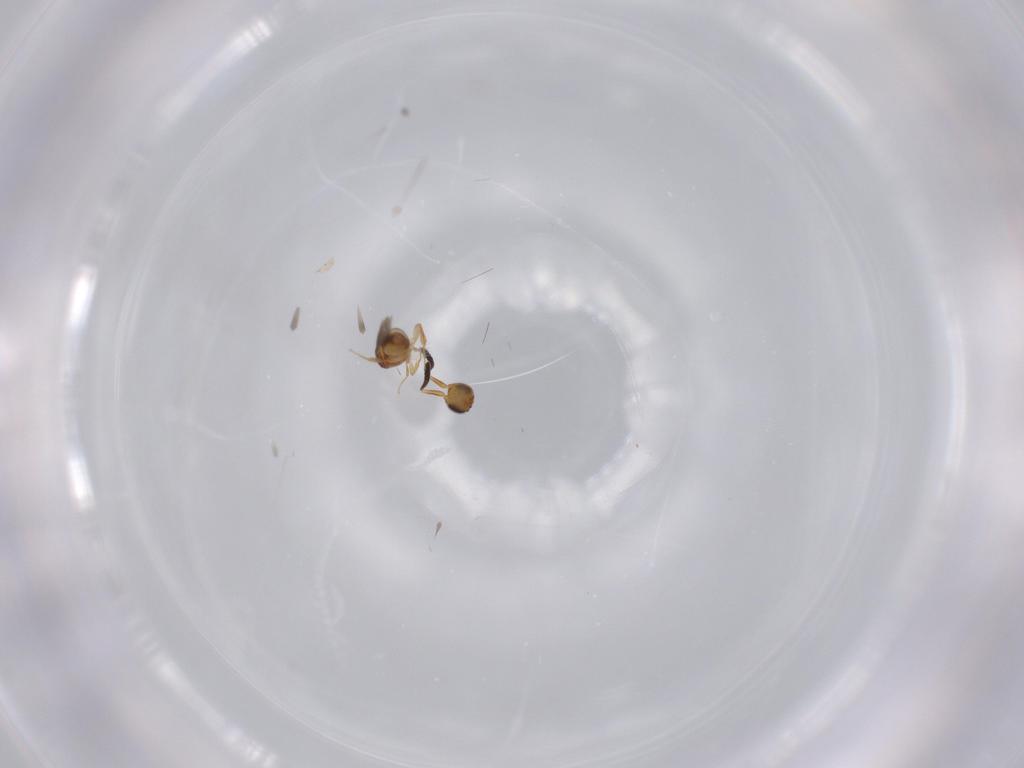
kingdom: Animalia
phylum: Arthropoda
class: Insecta
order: Hymenoptera
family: Ceraphronidae
